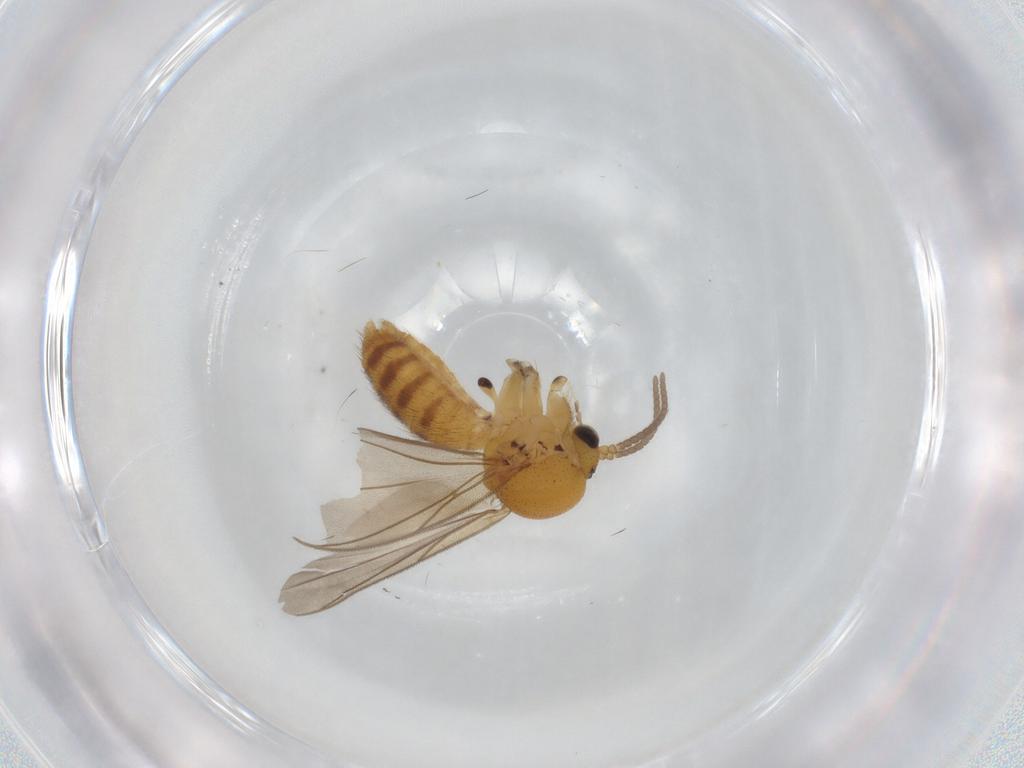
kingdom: Animalia
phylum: Arthropoda
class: Insecta
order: Diptera
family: Mycetophilidae
